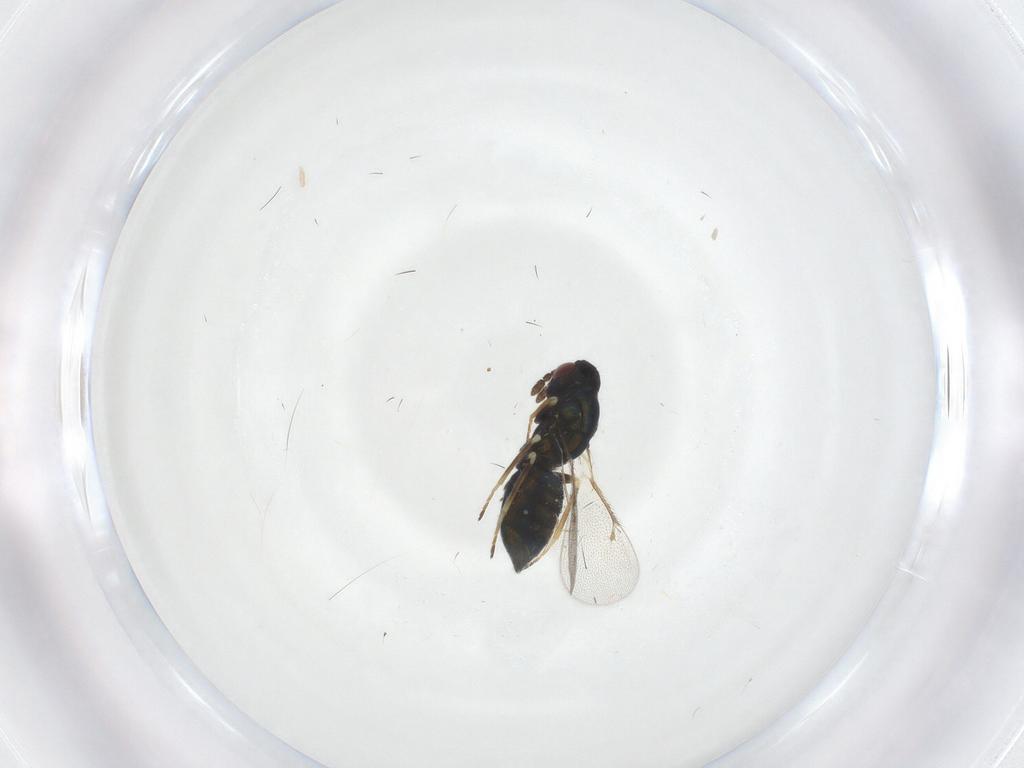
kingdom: Animalia
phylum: Arthropoda
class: Insecta
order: Hymenoptera
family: Eulophidae
